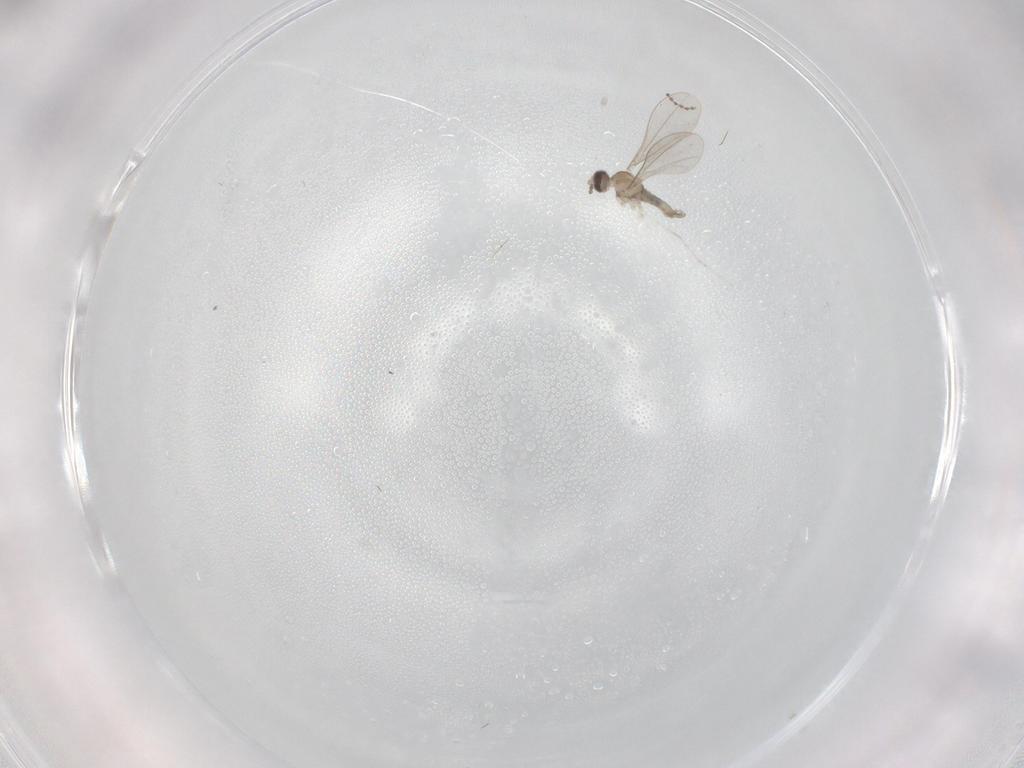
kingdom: Animalia
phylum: Arthropoda
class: Insecta
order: Diptera
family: Cecidomyiidae
